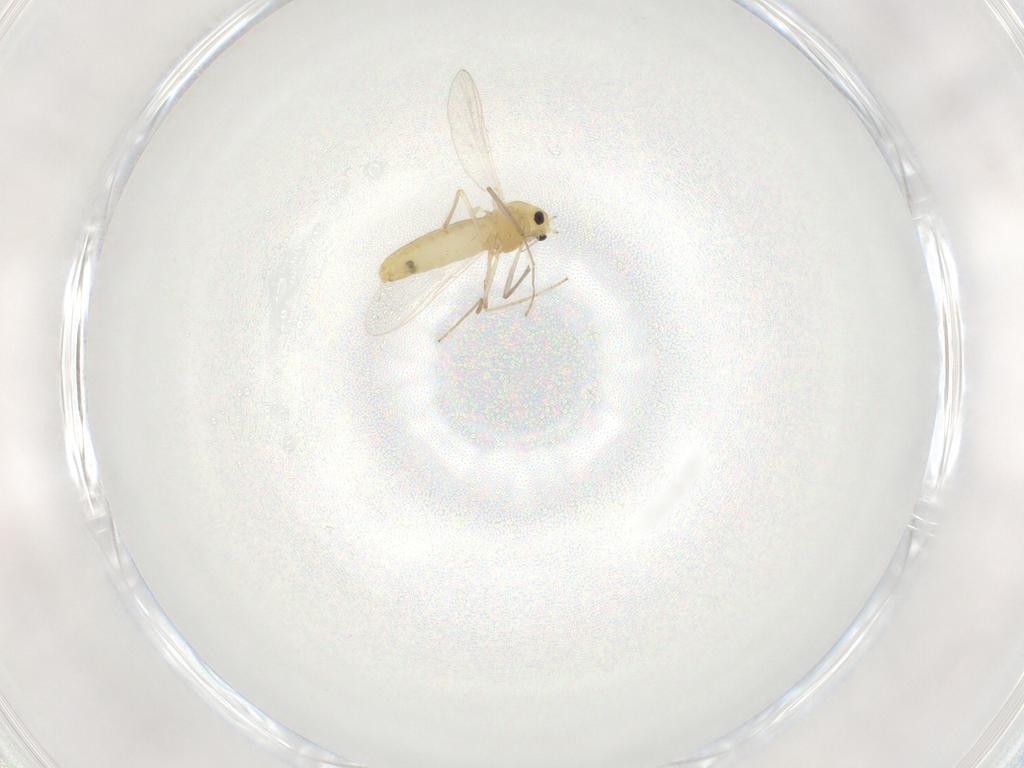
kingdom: Animalia
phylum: Arthropoda
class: Insecta
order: Diptera
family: Chironomidae
